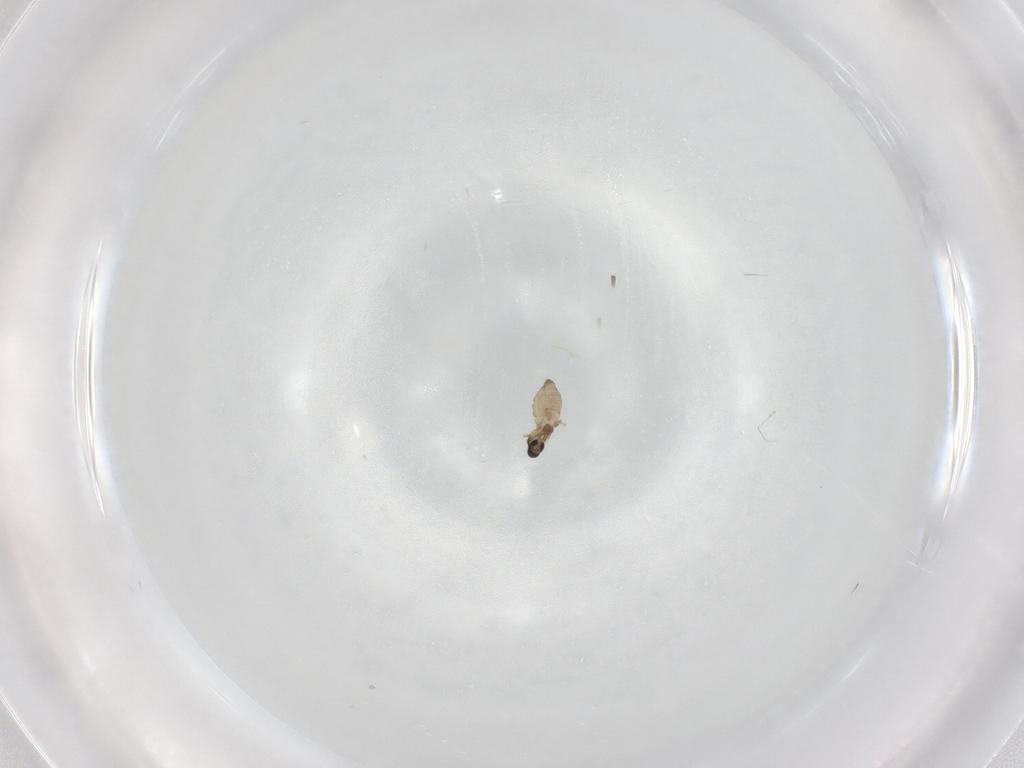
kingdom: Animalia
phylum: Arthropoda
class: Insecta
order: Diptera
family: Cecidomyiidae
